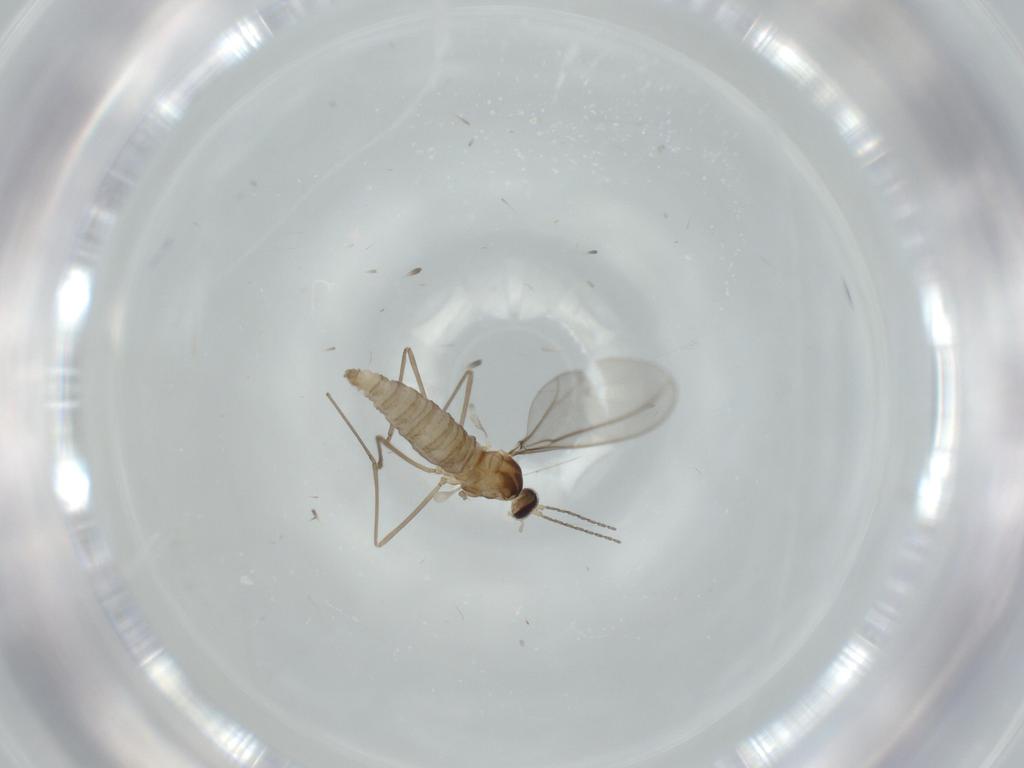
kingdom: Animalia
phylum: Arthropoda
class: Insecta
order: Diptera
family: Cecidomyiidae
